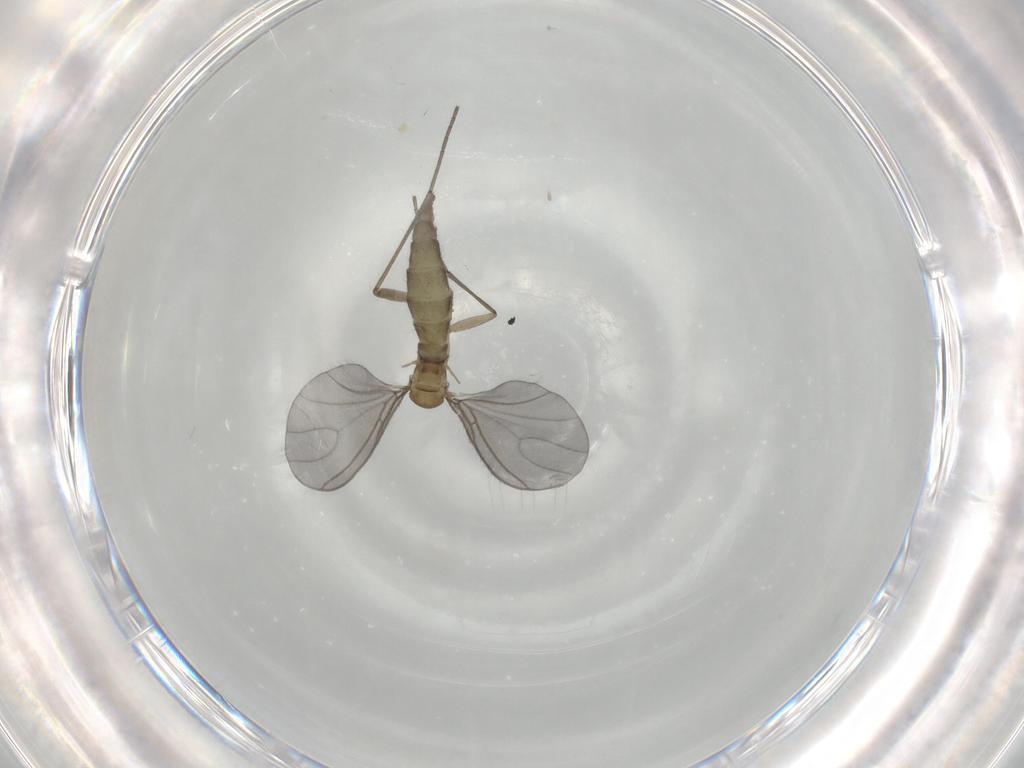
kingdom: Animalia
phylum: Arthropoda
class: Insecta
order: Diptera
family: Sciaridae
